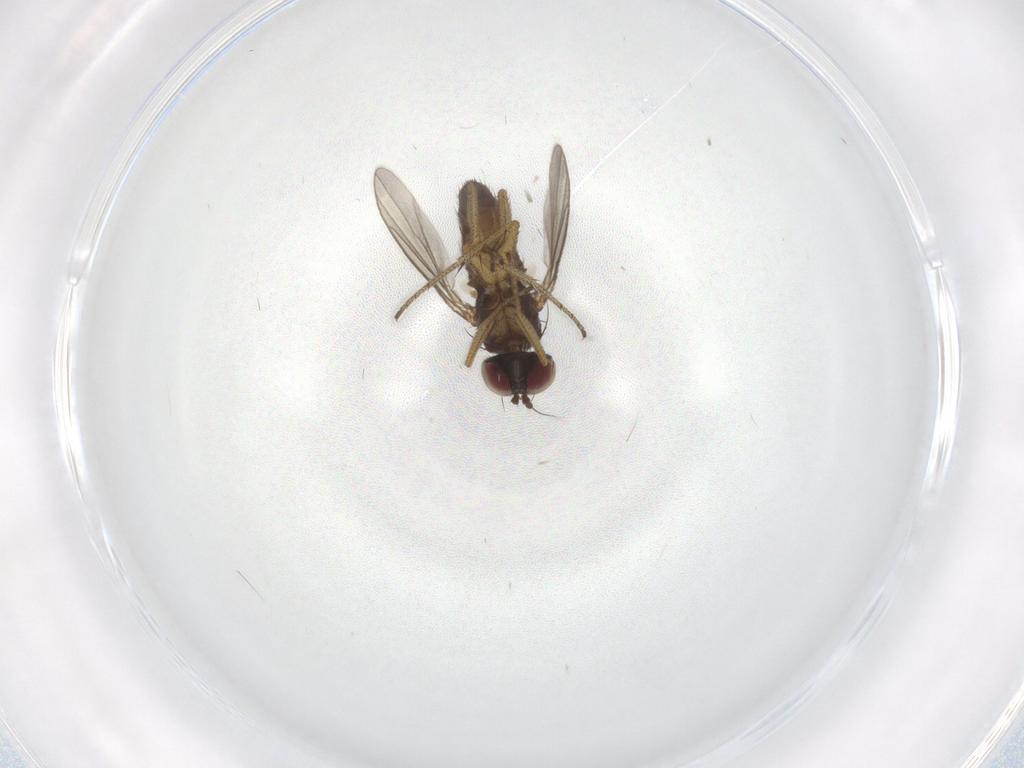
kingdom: Animalia
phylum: Arthropoda
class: Insecta
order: Diptera
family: Dolichopodidae
